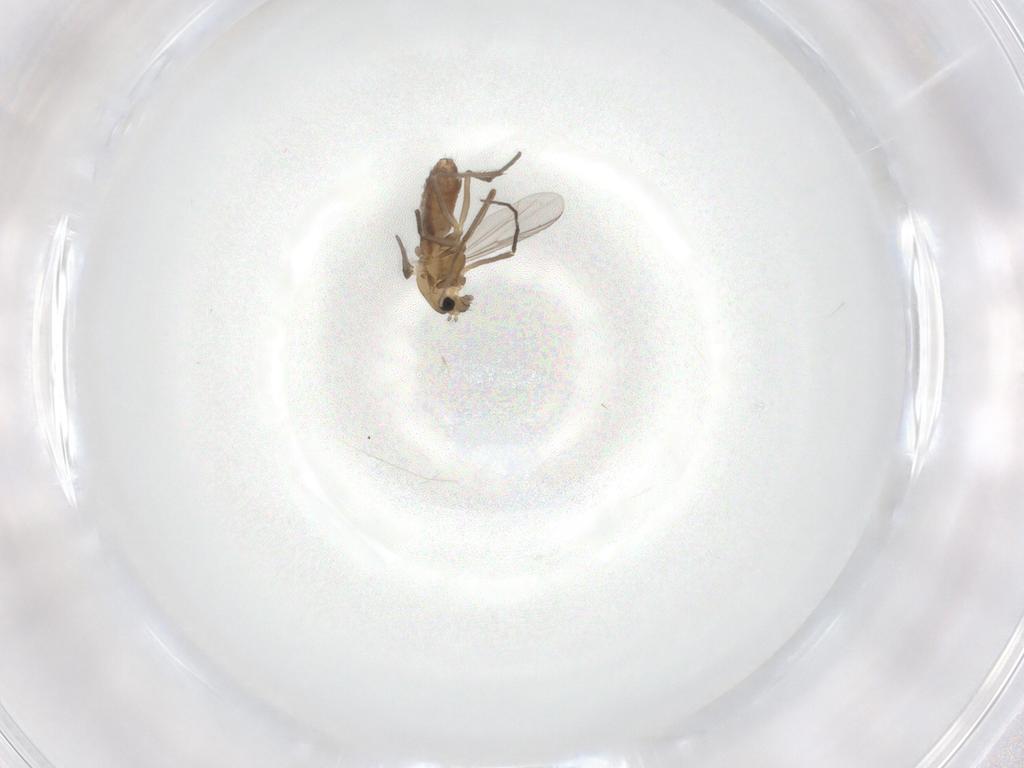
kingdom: Animalia
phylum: Arthropoda
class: Insecta
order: Diptera
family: Chironomidae
